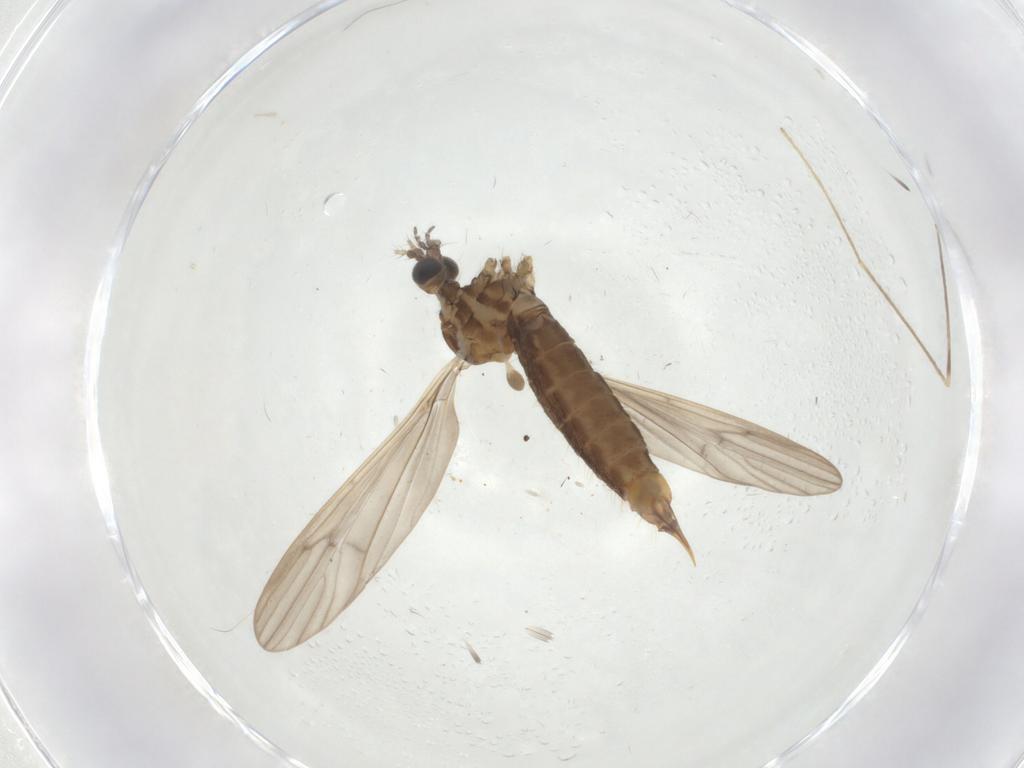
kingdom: Animalia
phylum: Arthropoda
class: Insecta
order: Diptera
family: Limoniidae
